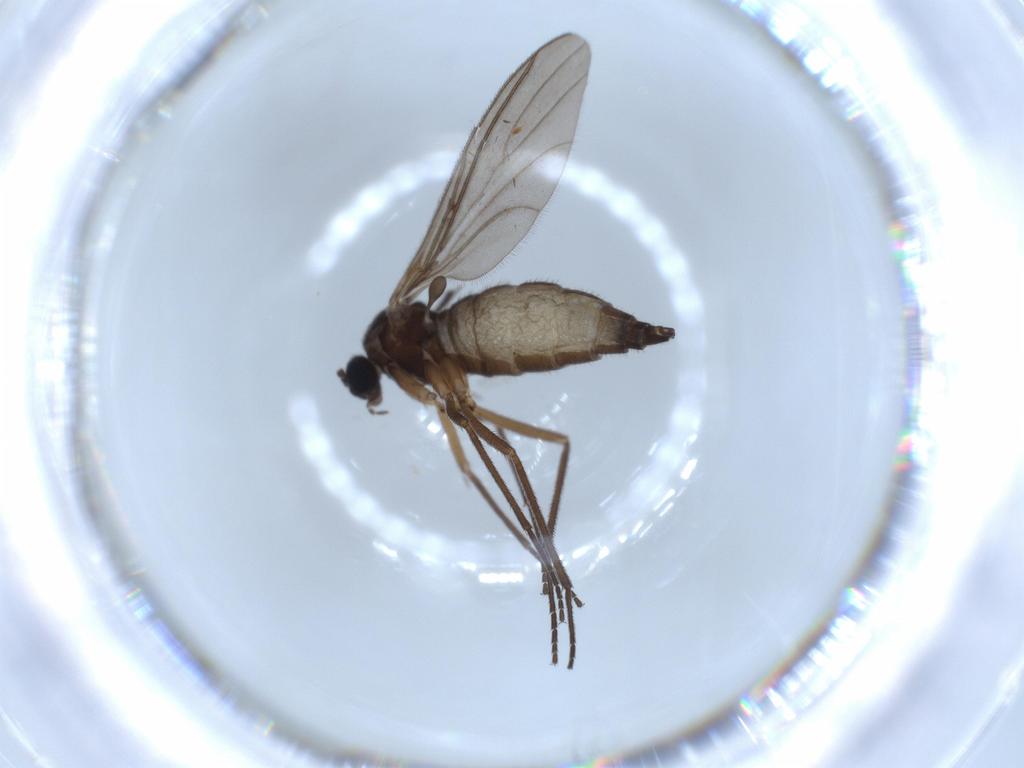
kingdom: Animalia
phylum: Arthropoda
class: Insecta
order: Diptera
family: Sciaridae
